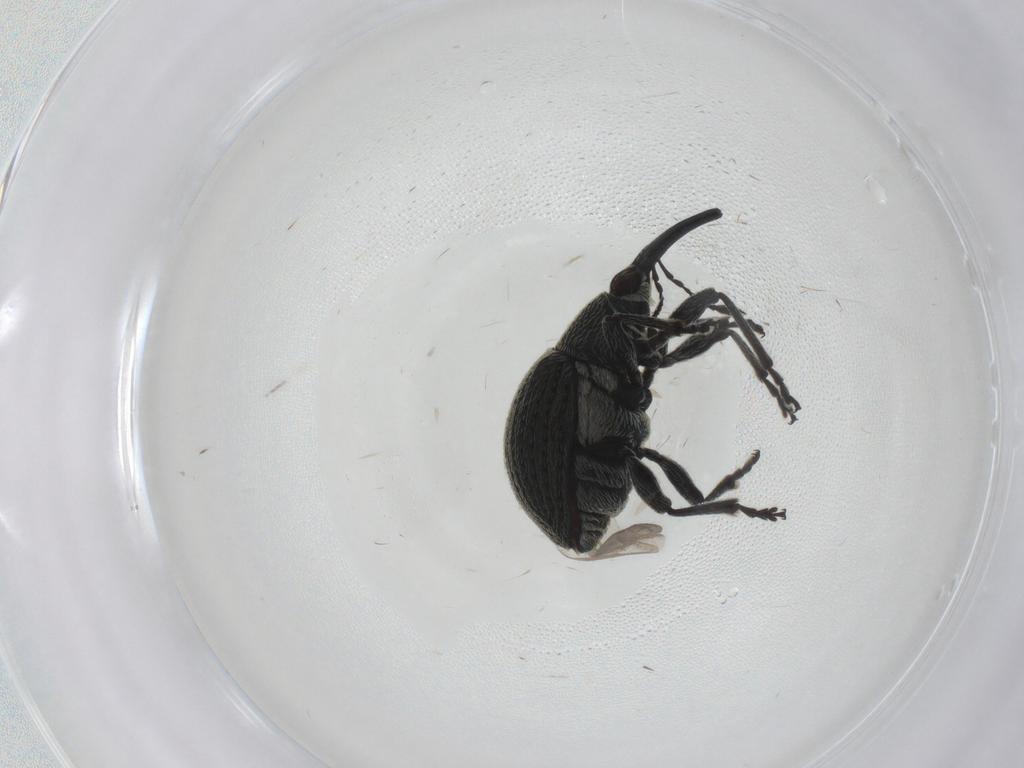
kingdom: Animalia
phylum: Arthropoda
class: Insecta
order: Coleoptera
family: Brentidae
